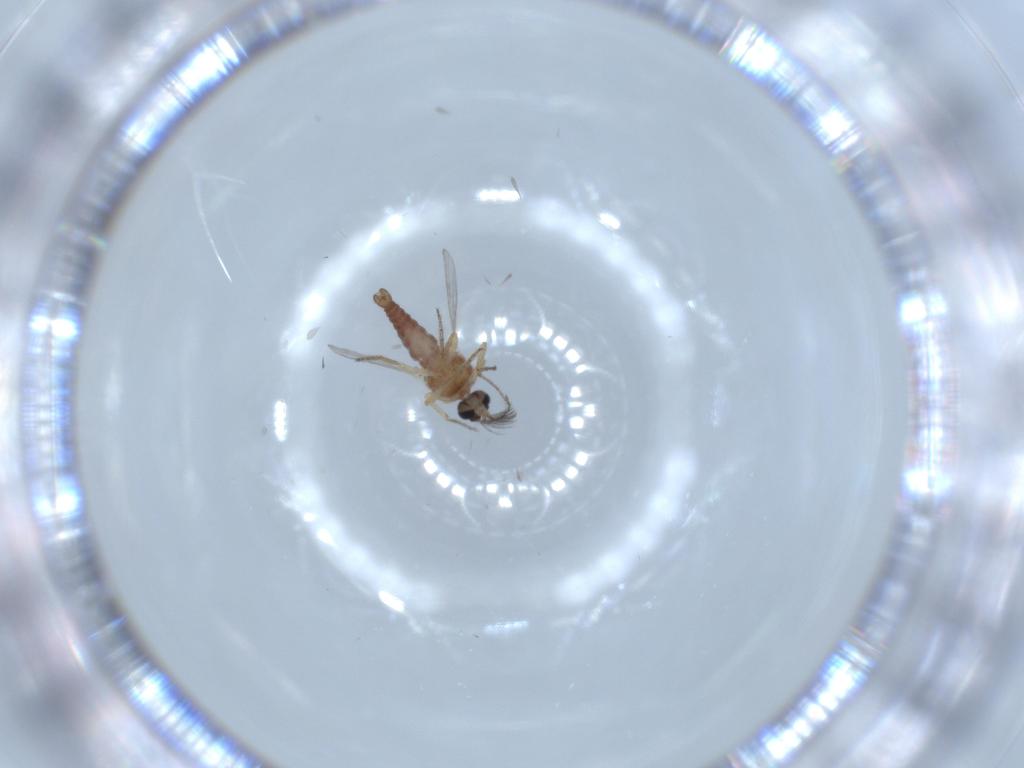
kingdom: Animalia
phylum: Arthropoda
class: Insecta
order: Diptera
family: Ceratopogonidae
